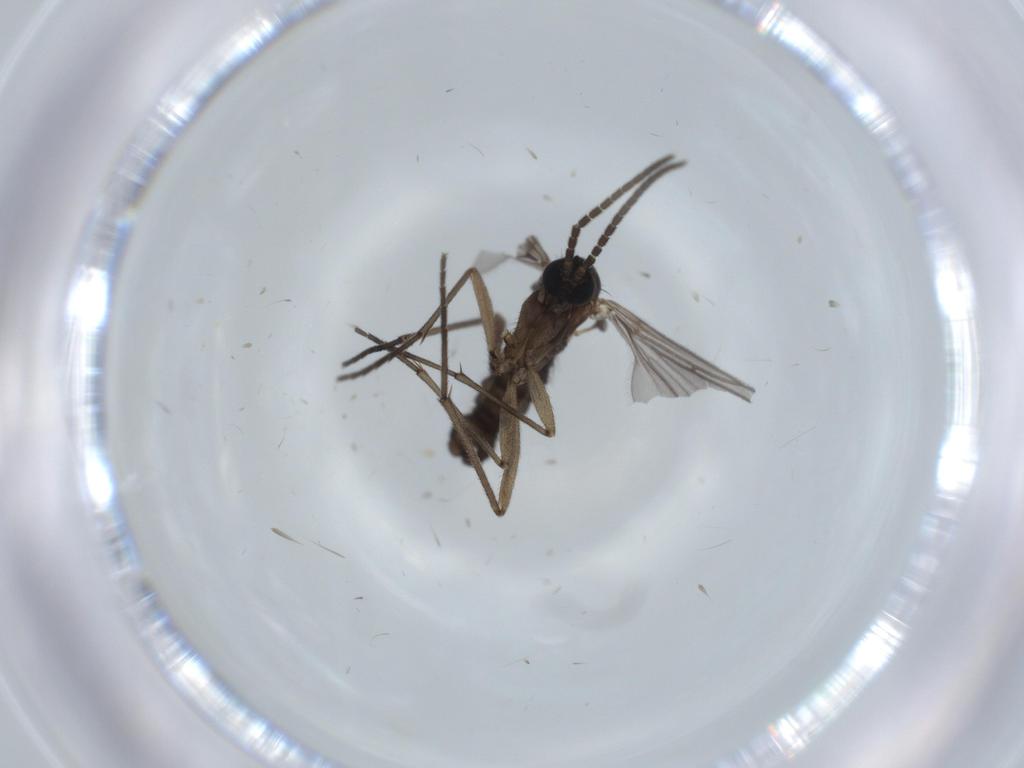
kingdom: Animalia
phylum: Arthropoda
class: Insecta
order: Diptera
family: Sciaridae
